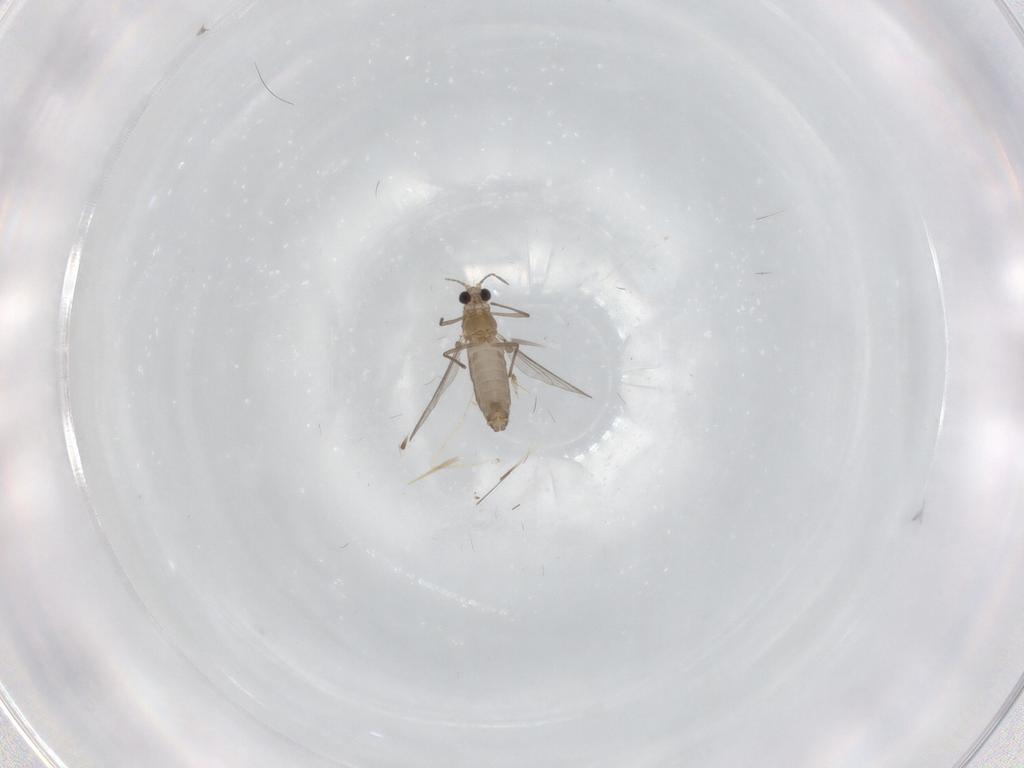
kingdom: Animalia
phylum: Arthropoda
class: Insecta
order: Diptera
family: Chironomidae
